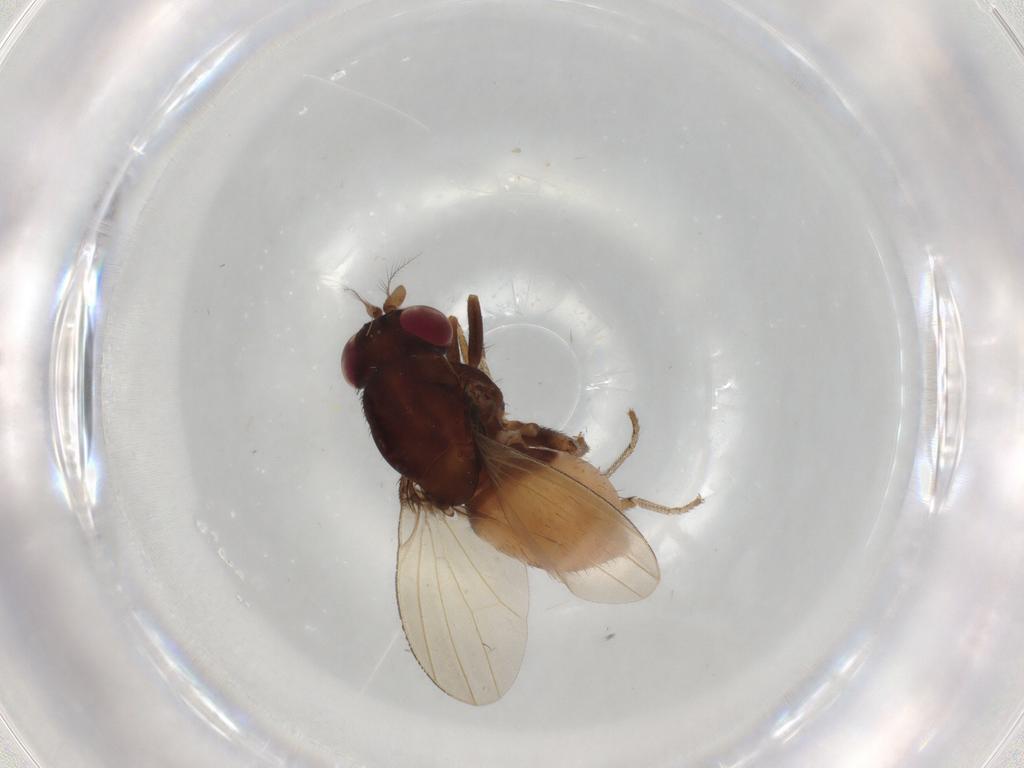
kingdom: Animalia
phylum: Arthropoda
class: Insecta
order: Diptera
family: Lauxaniidae
